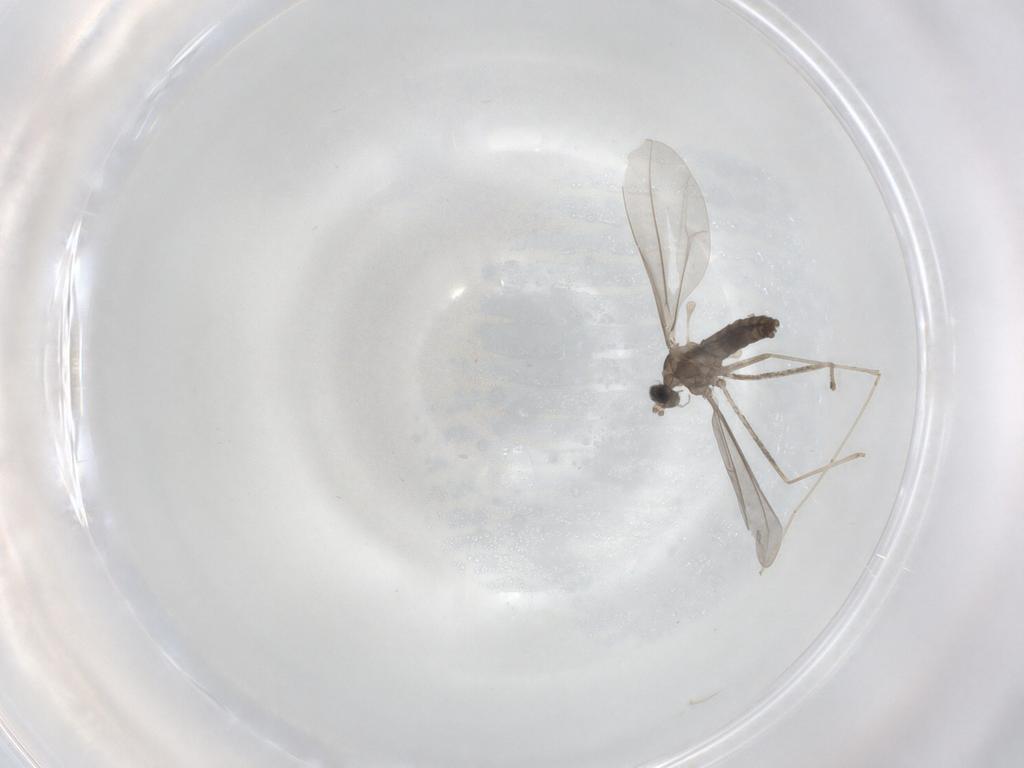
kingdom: Animalia
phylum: Arthropoda
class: Insecta
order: Diptera
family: Cecidomyiidae
